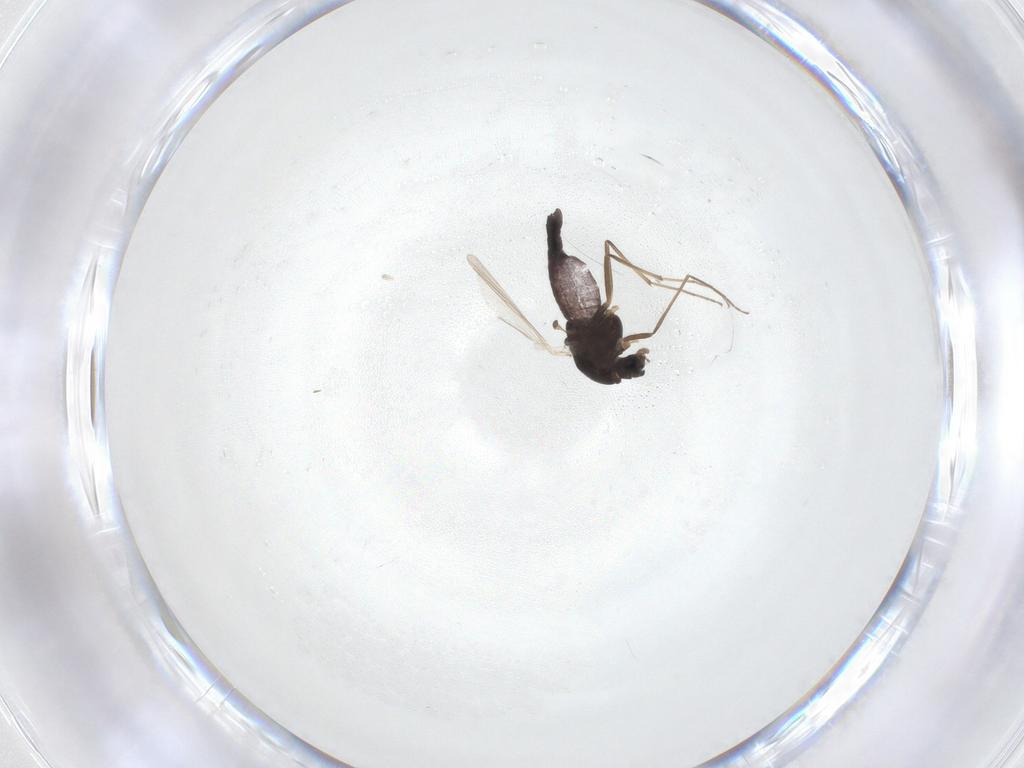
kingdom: Animalia
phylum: Arthropoda
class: Insecta
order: Diptera
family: Chironomidae
